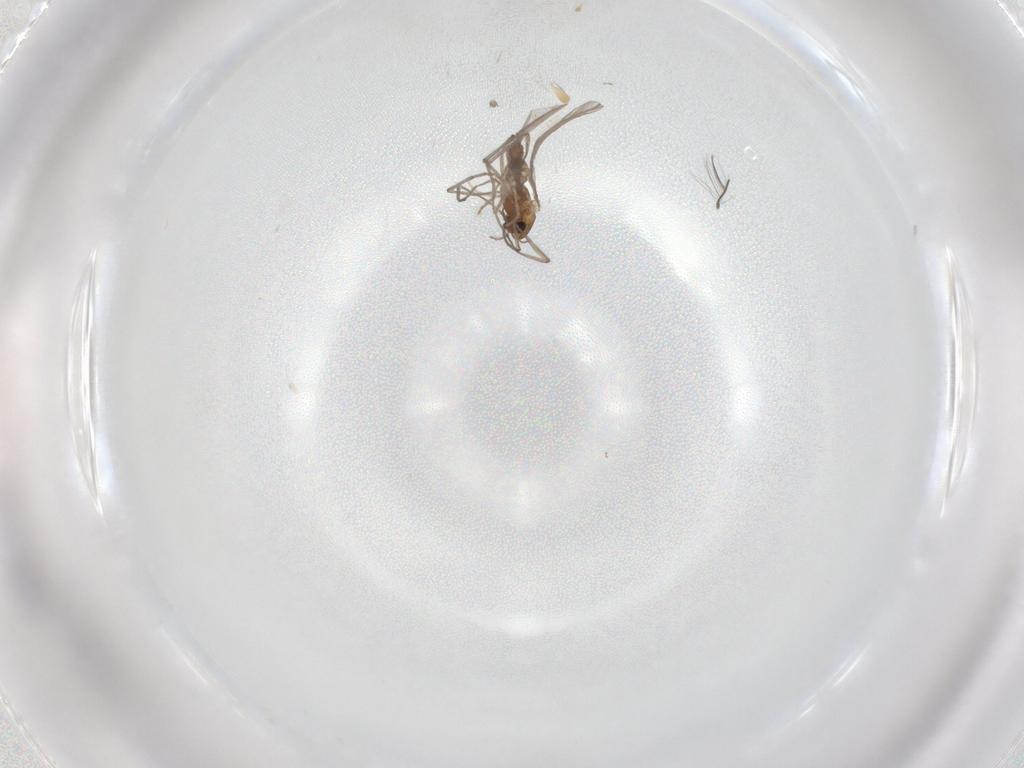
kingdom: Animalia
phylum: Arthropoda
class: Insecta
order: Diptera
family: Chironomidae
